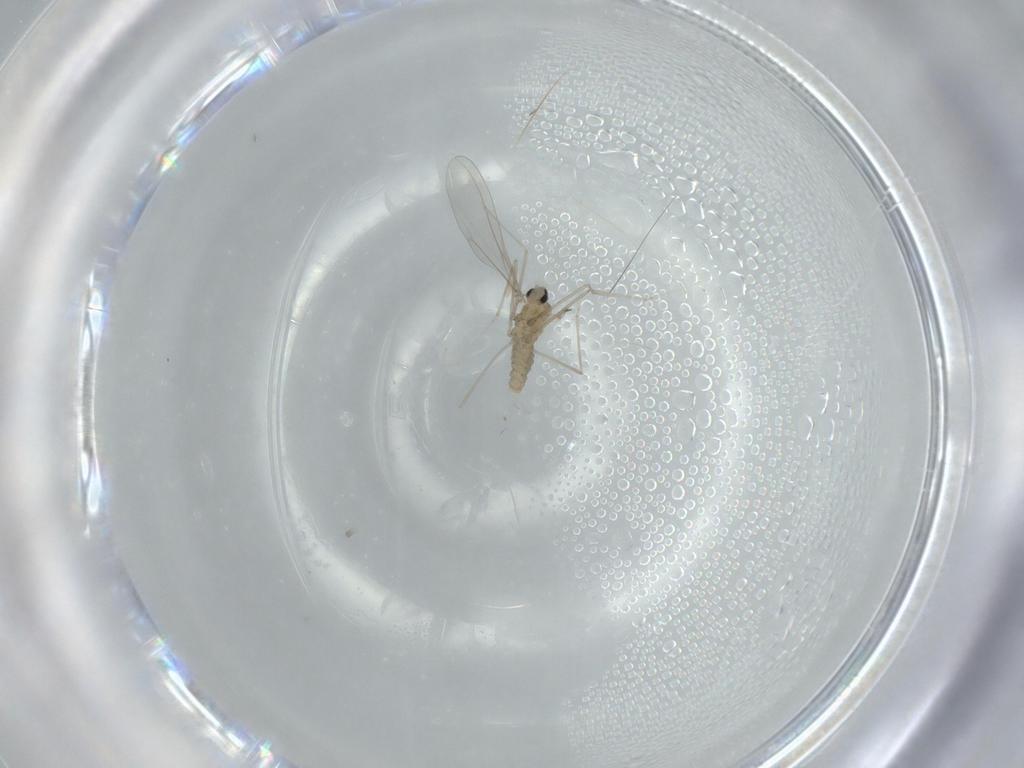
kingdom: Animalia
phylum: Arthropoda
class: Insecta
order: Diptera
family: Cecidomyiidae
